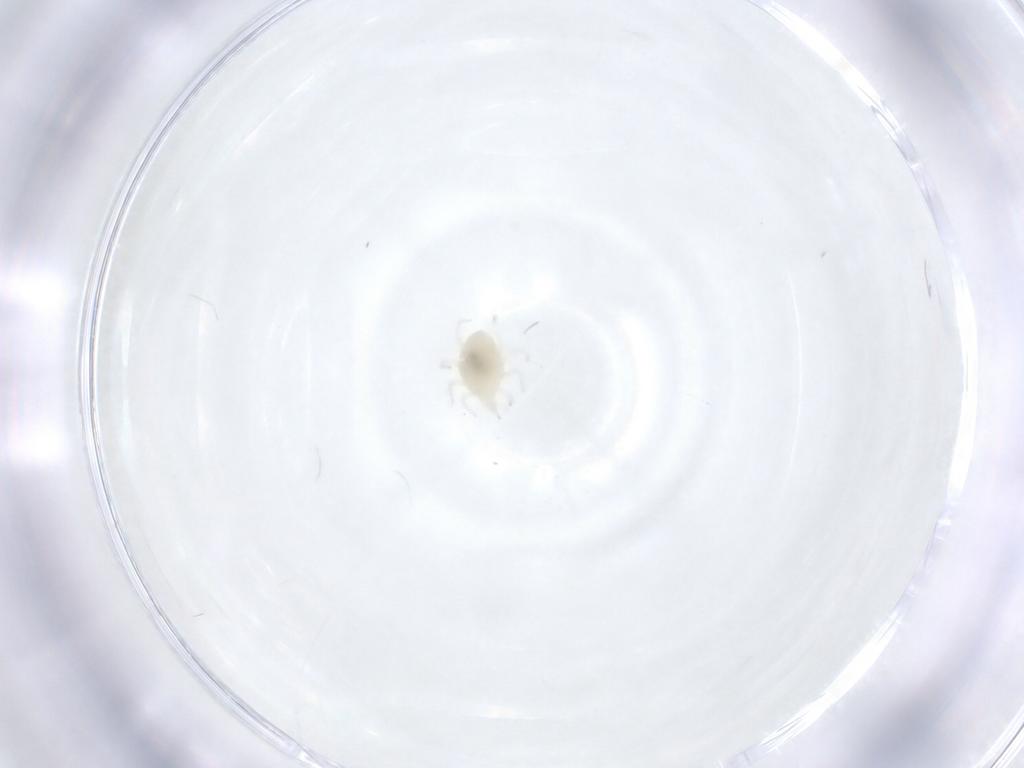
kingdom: Animalia
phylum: Arthropoda
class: Arachnida
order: Trombidiformes
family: Bdellidae
